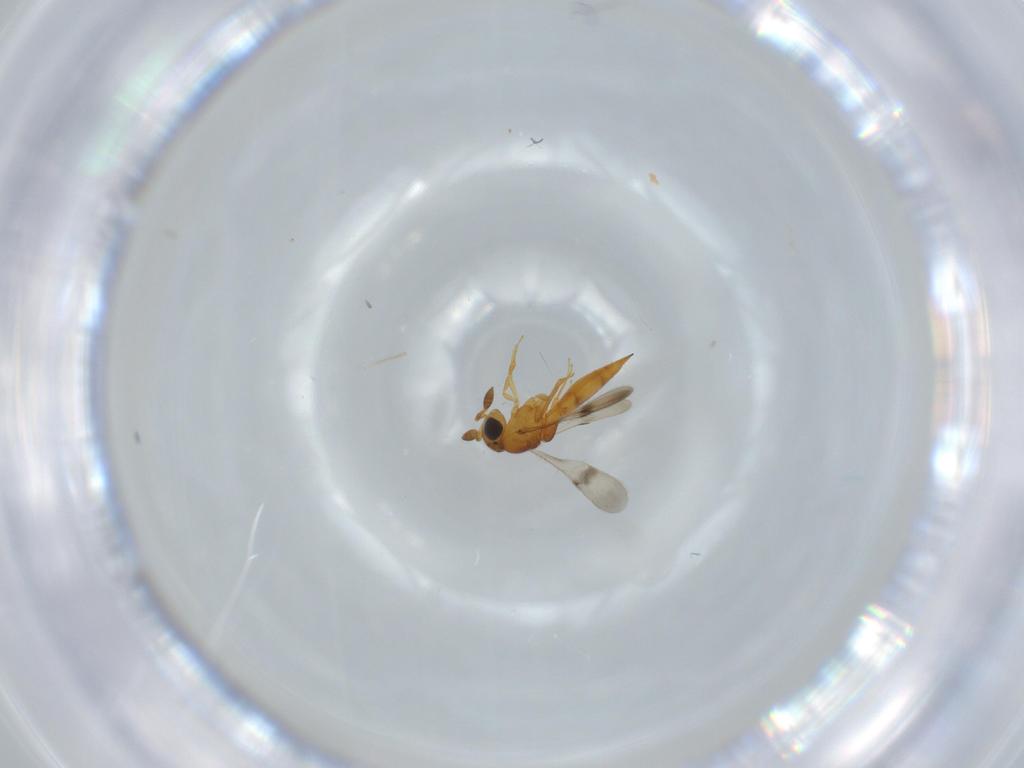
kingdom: Animalia
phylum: Arthropoda
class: Insecta
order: Hymenoptera
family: Scelionidae
